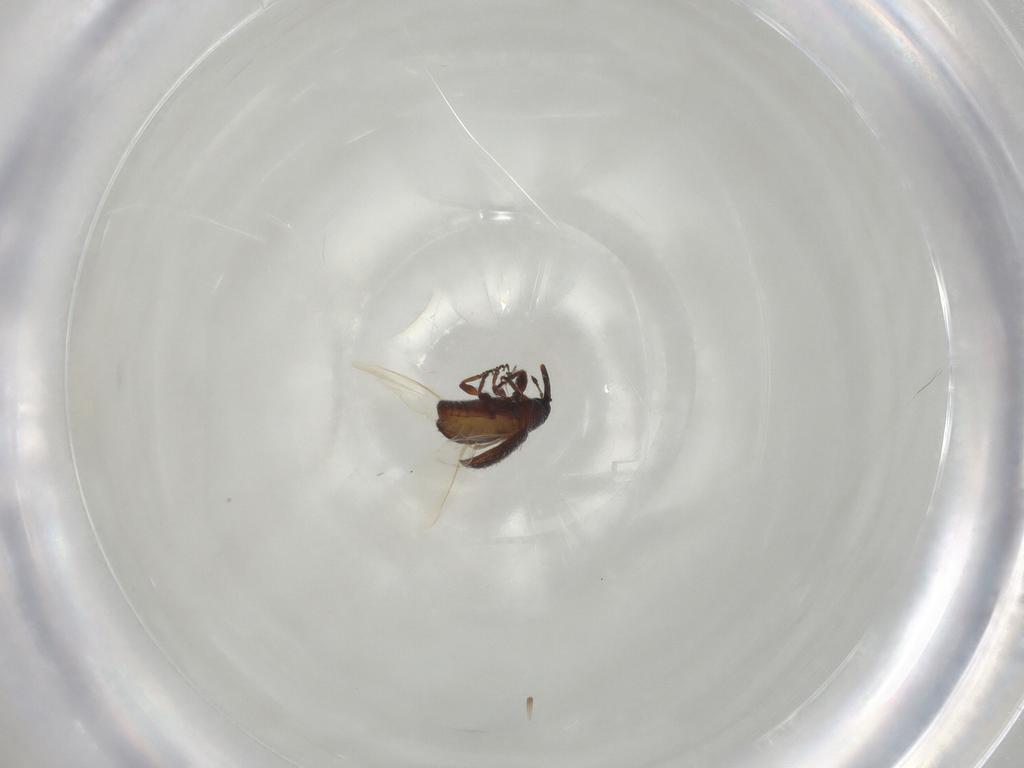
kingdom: Animalia
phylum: Arthropoda
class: Insecta
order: Coleoptera
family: Curculionidae
